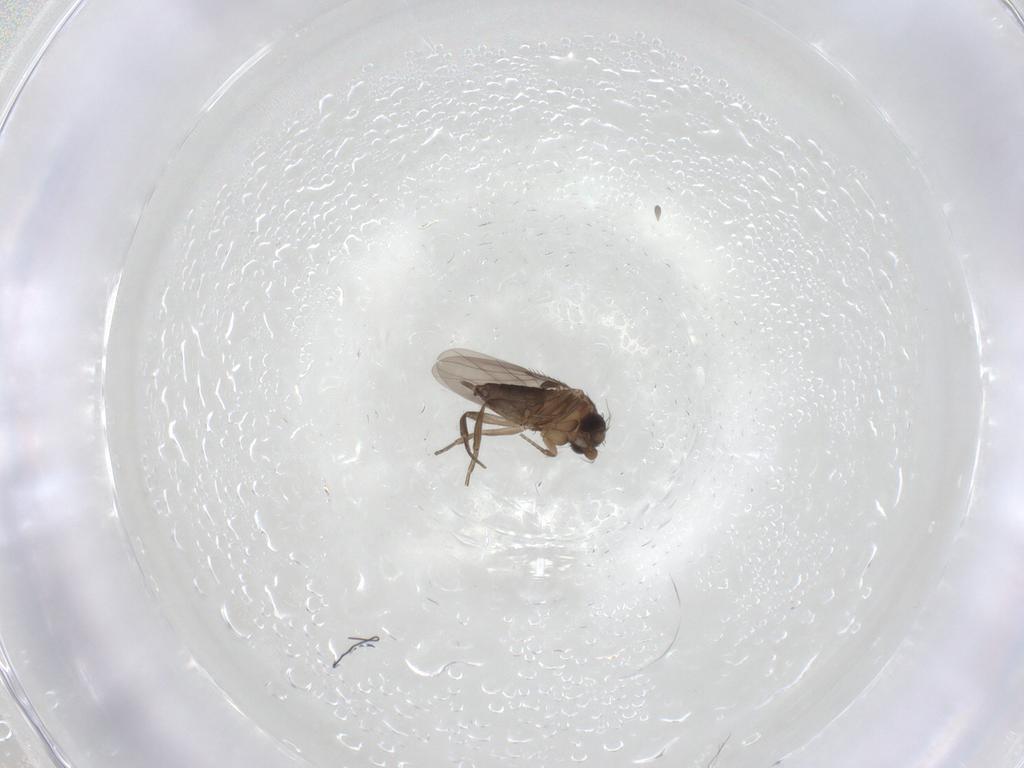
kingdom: Animalia
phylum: Arthropoda
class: Insecta
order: Diptera
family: Phoridae
